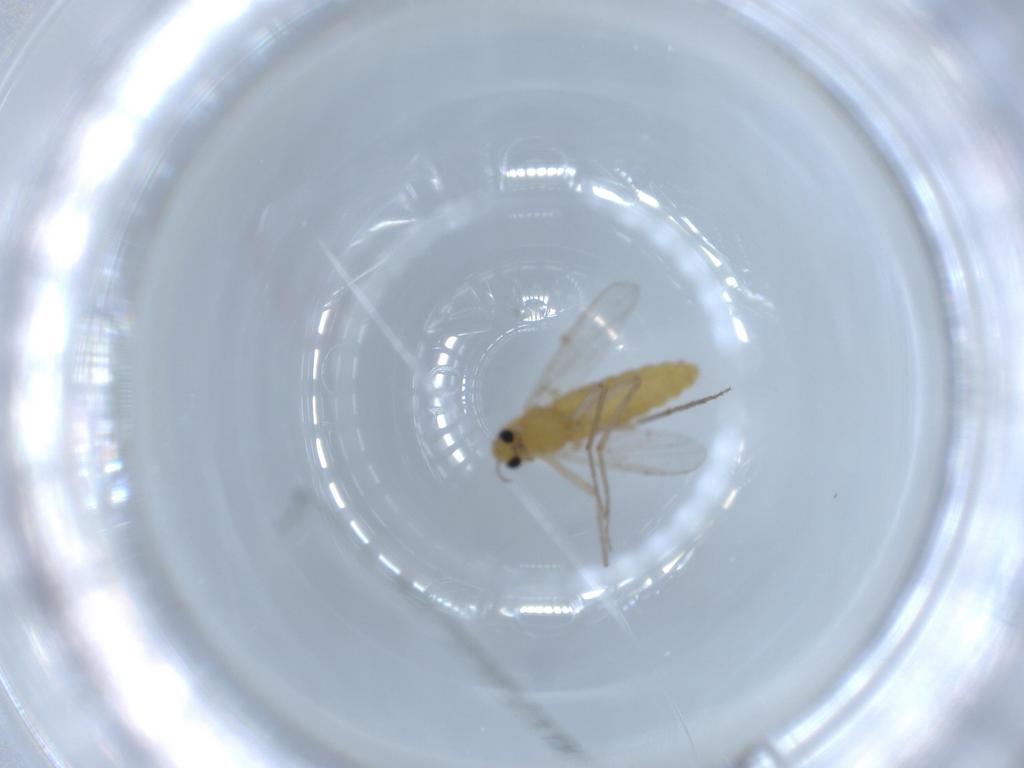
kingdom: Animalia
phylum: Arthropoda
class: Insecta
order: Diptera
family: Chironomidae
